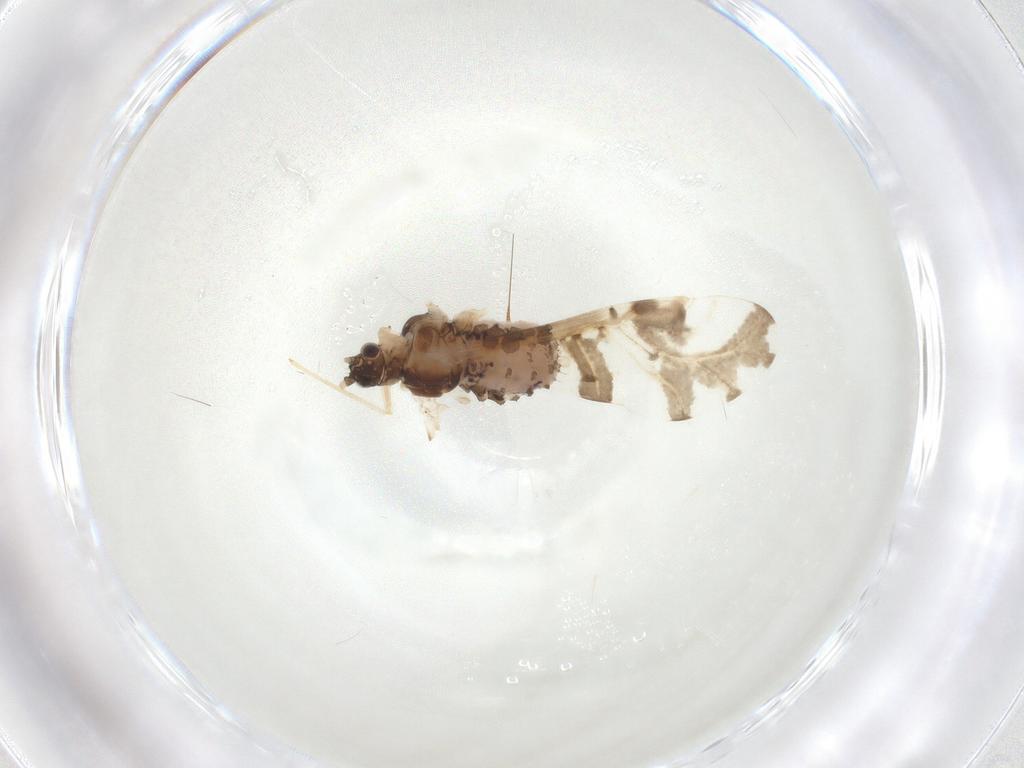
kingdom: Animalia
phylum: Arthropoda
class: Insecta
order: Hemiptera
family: Aphididae
